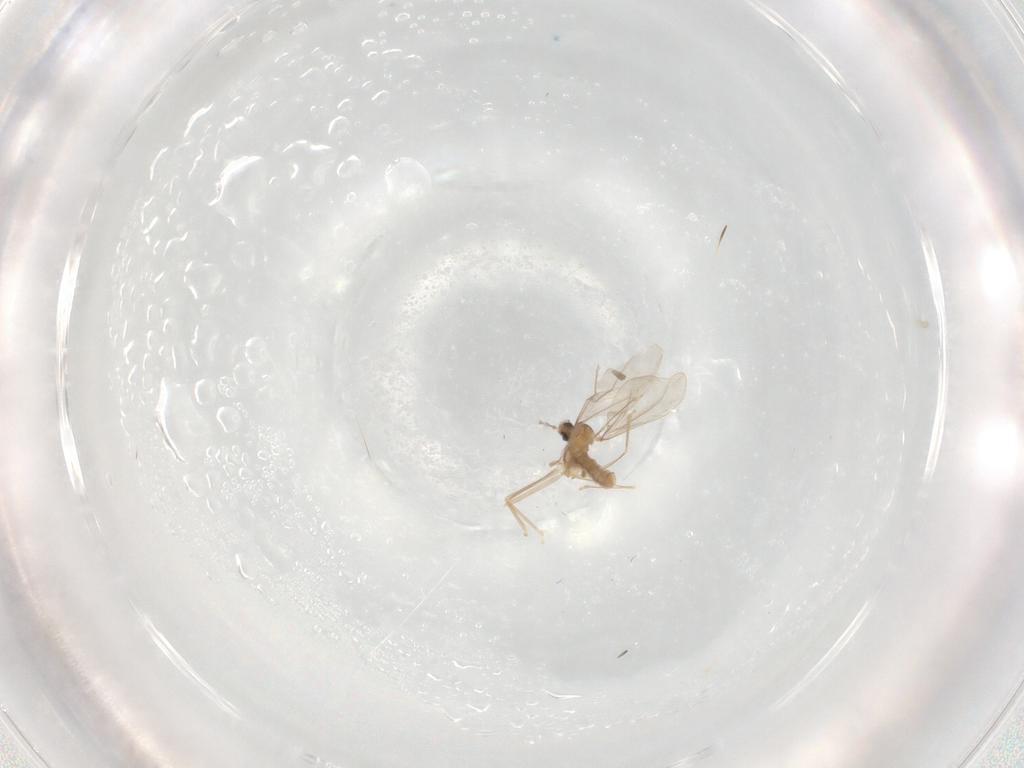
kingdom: Animalia
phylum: Arthropoda
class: Insecta
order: Diptera
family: Cecidomyiidae
